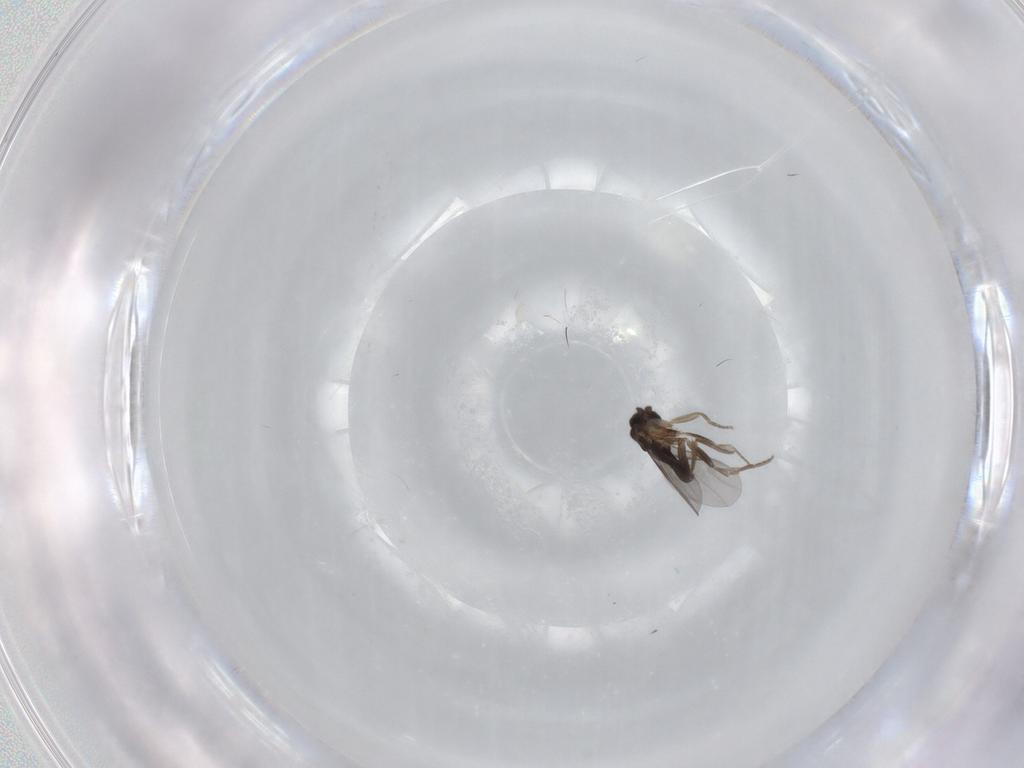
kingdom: Animalia
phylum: Arthropoda
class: Insecta
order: Diptera
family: Ceratopogonidae
